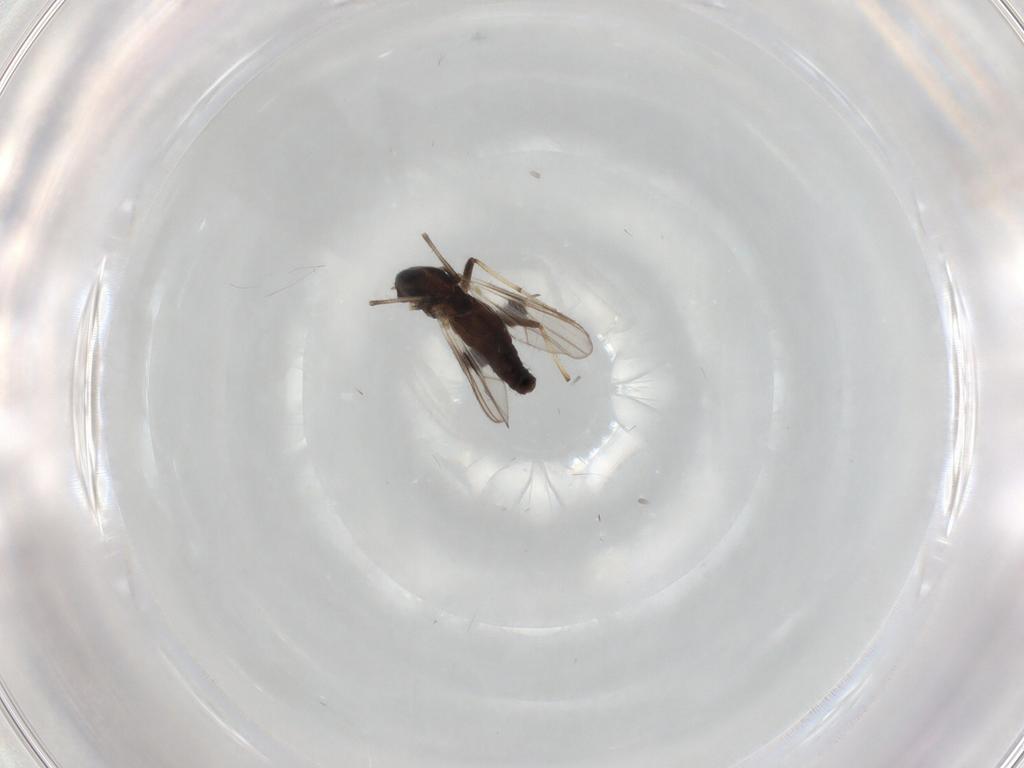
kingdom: Animalia
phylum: Arthropoda
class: Insecta
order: Diptera
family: Chironomidae
